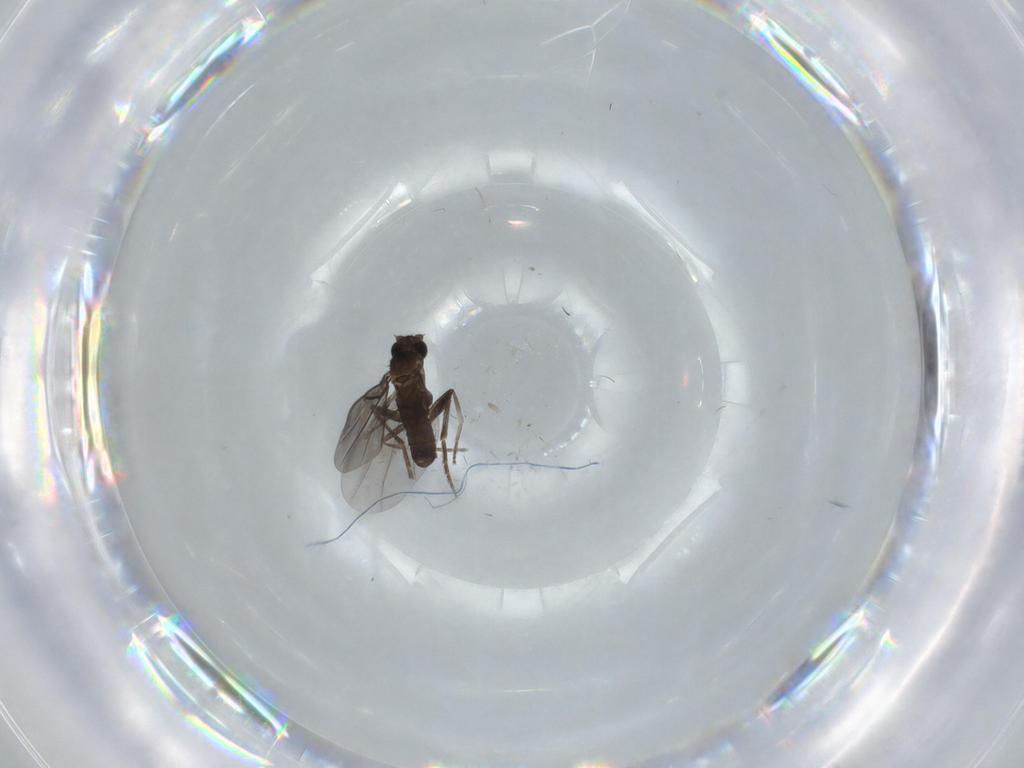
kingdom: Animalia
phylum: Arthropoda
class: Insecta
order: Diptera
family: Phoridae
